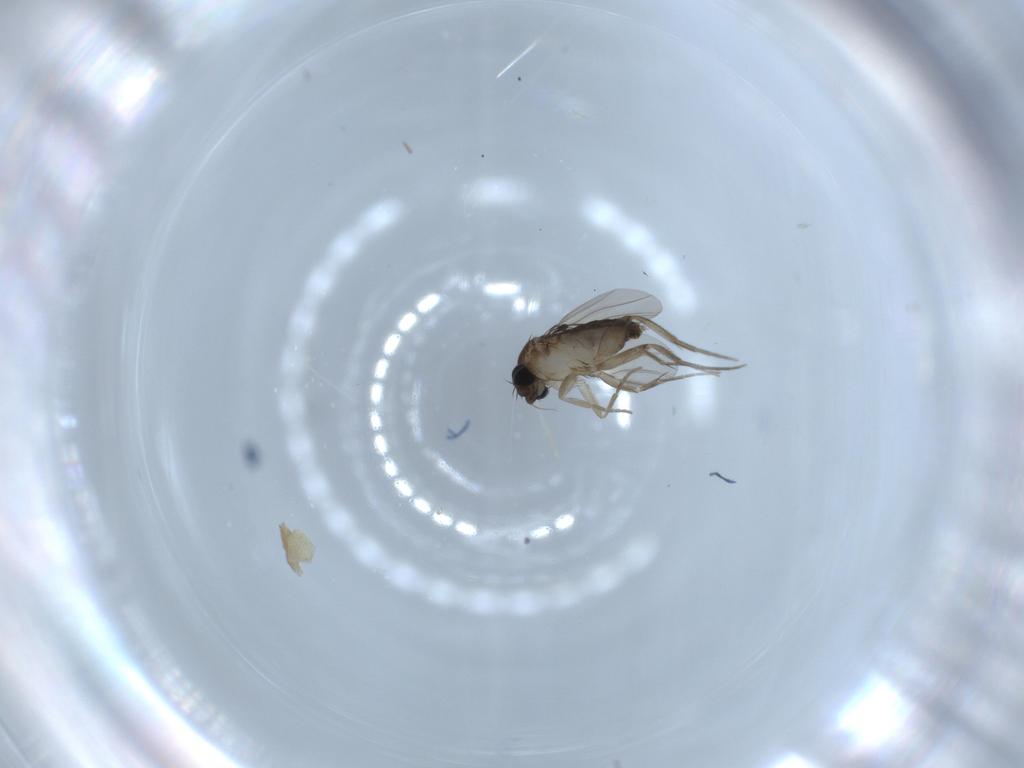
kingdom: Animalia
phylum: Arthropoda
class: Insecta
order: Diptera
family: Phoridae
